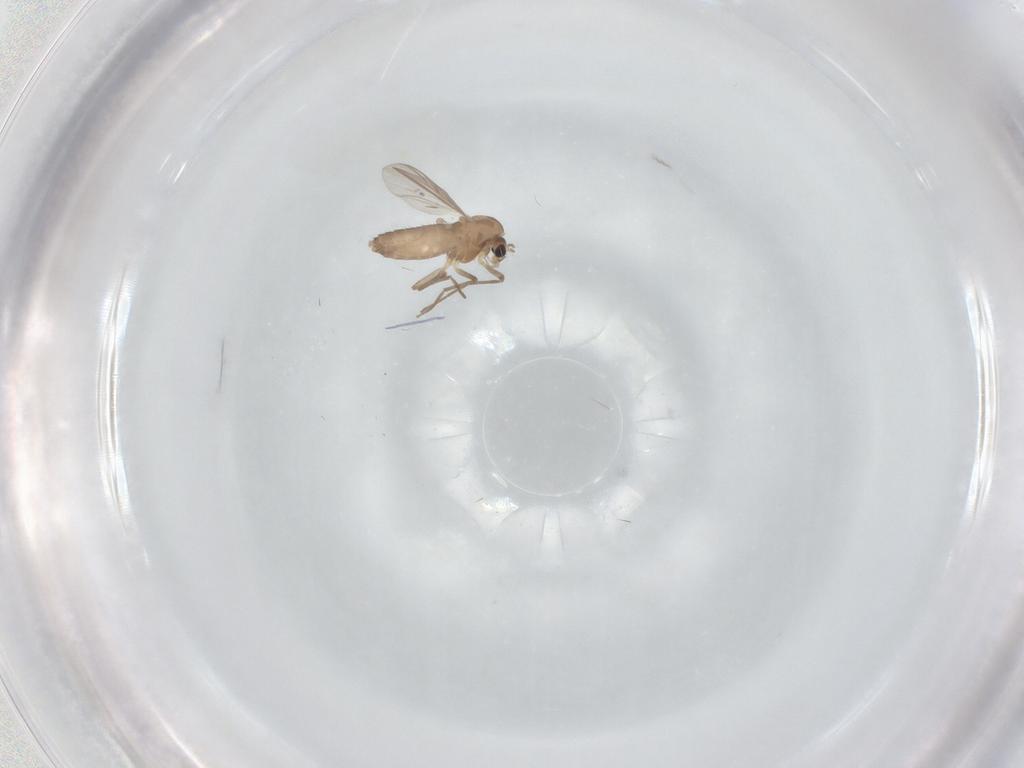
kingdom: Animalia
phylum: Arthropoda
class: Insecta
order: Diptera
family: Chironomidae
